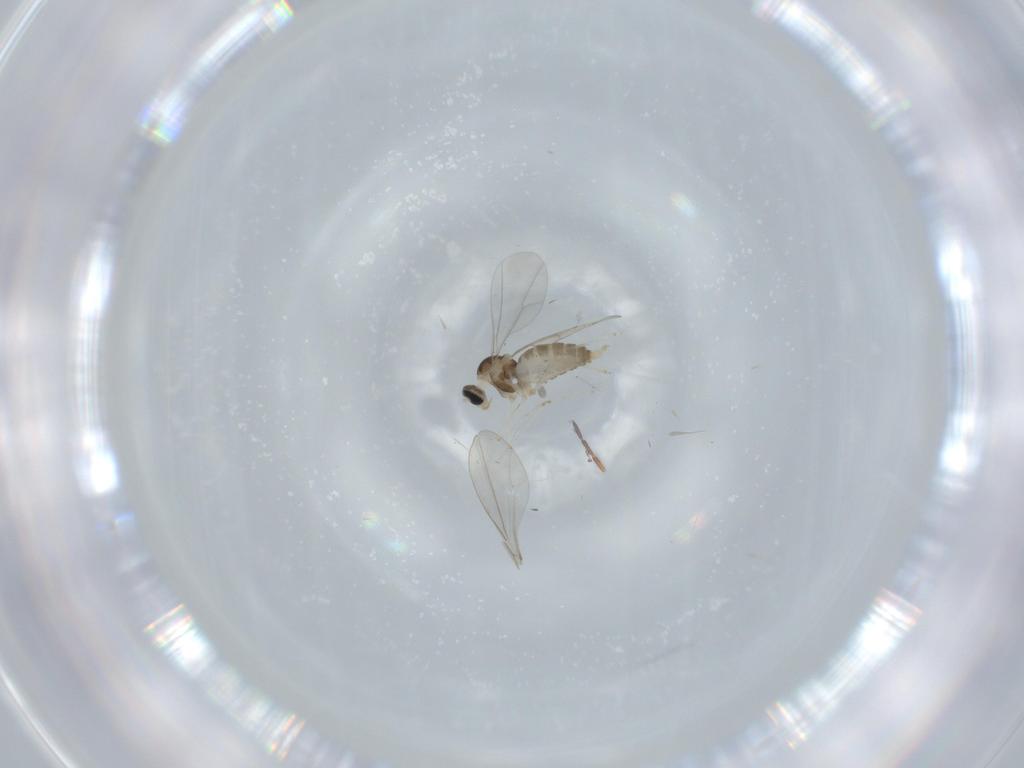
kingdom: Animalia
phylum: Arthropoda
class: Insecta
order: Diptera
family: Cecidomyiidae
